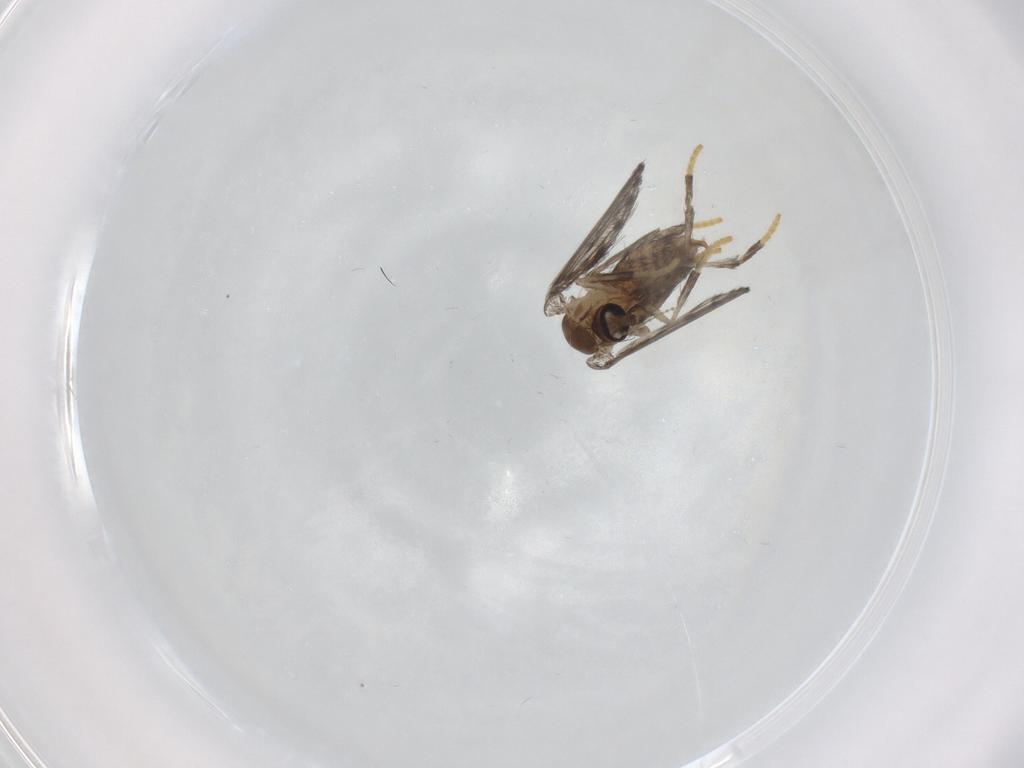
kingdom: Animalia
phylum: Arthropoda
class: Insecta
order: Diptera
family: Psychodidae
